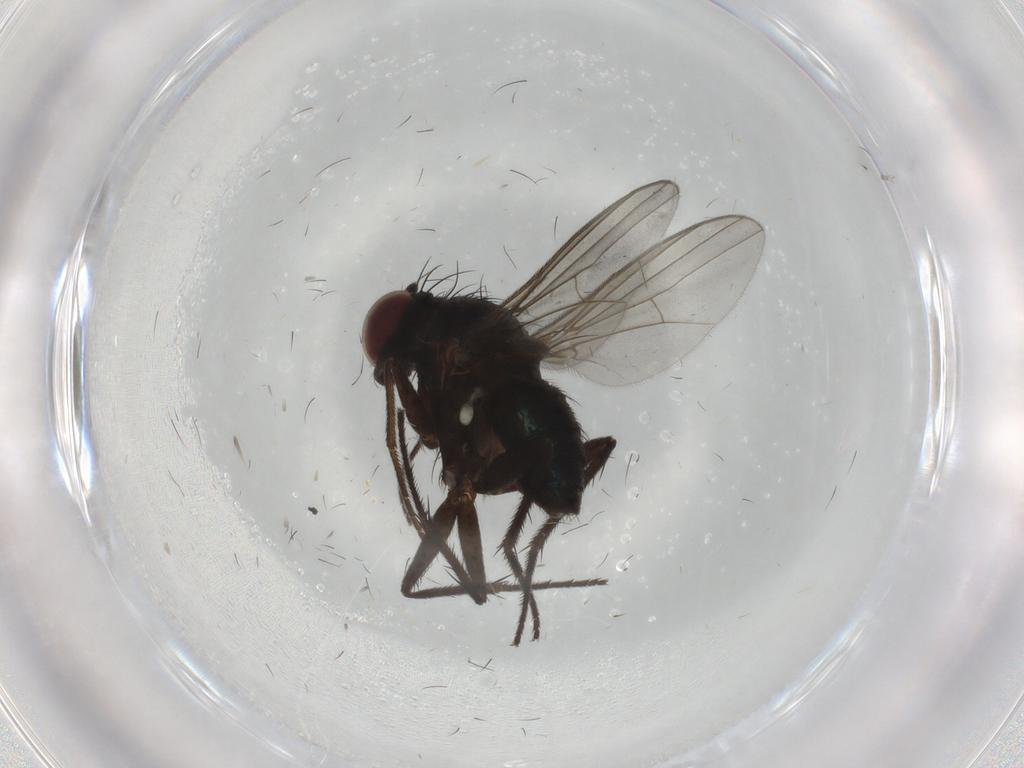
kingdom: Animalia
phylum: Arthropoda
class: Insecta
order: Diptera
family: Dolichopodidae
